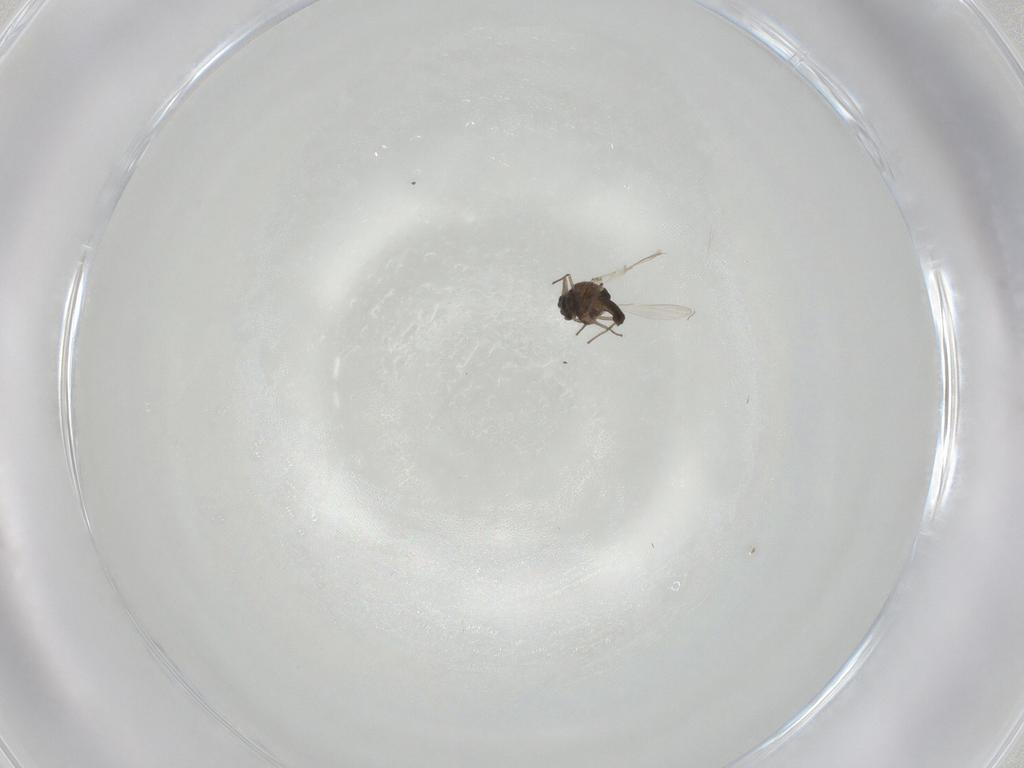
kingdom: Animalia
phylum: Arthropoda
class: Insecta
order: Diptera
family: Chironomidae
